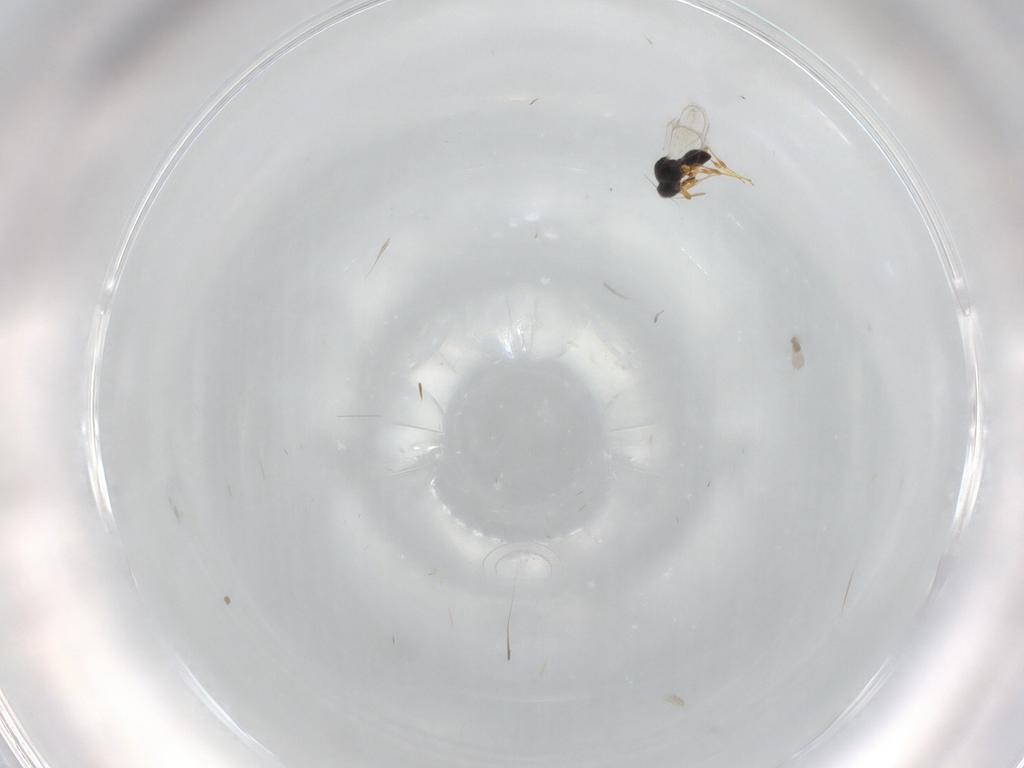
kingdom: Animalia
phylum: Arthropoda
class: Insecta
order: Hymenoptera
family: Platygastridae
